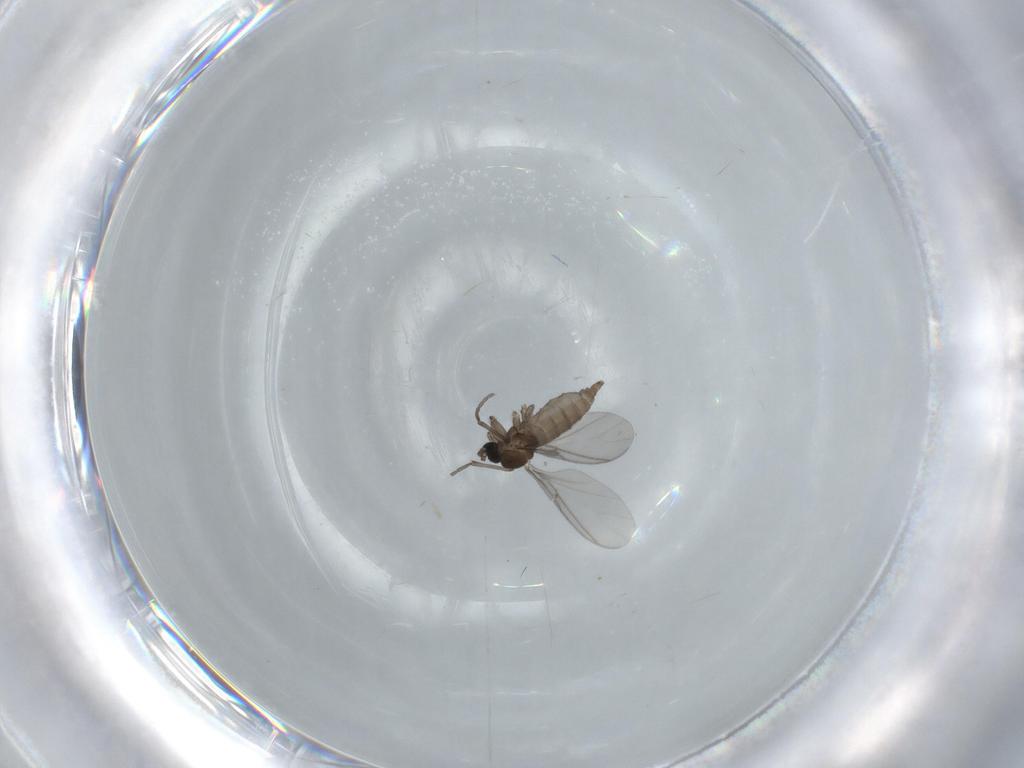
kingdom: Animalia
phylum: Arthropoda
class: Insecta
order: Diptera
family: Sciaridae
